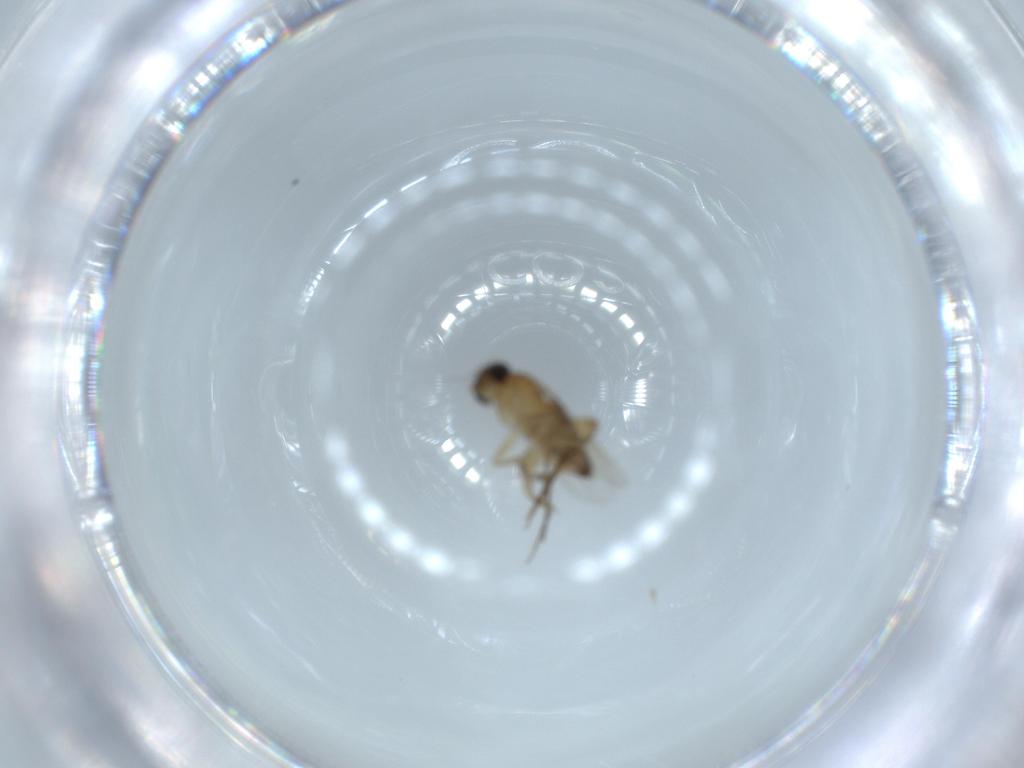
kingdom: Animalia
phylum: Arthropoda
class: Insecta
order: Diptera
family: Phoridae
